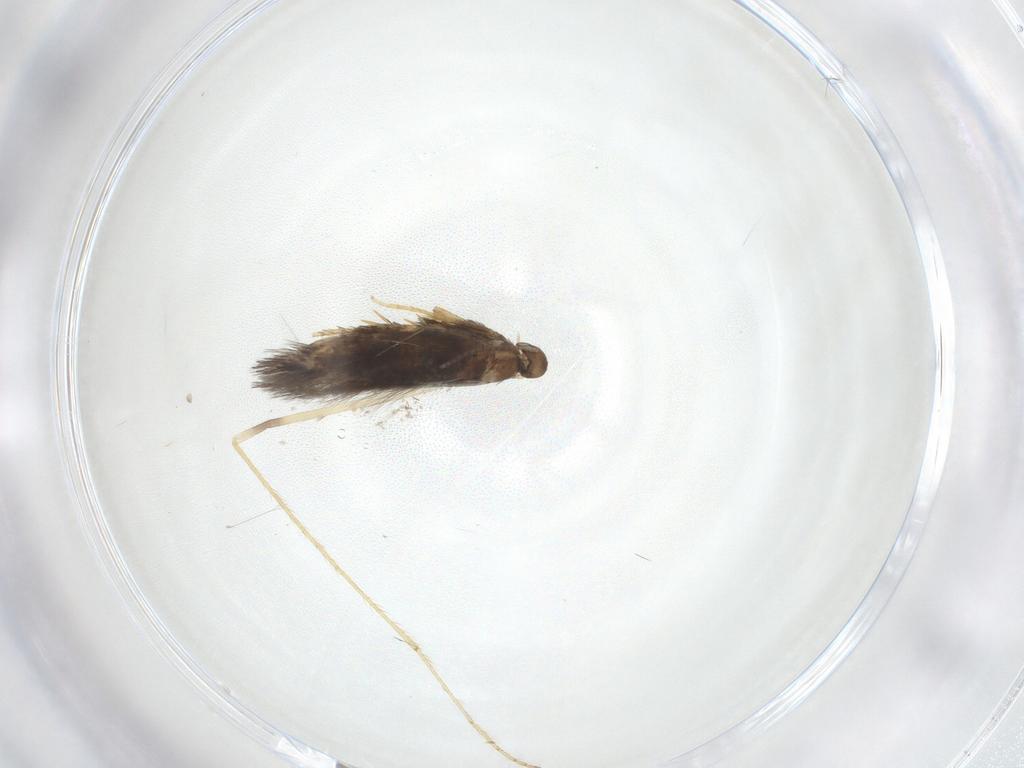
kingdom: Animalia
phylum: Arthropoda
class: Insecta
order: Lepidoptera
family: Heliozelidae
